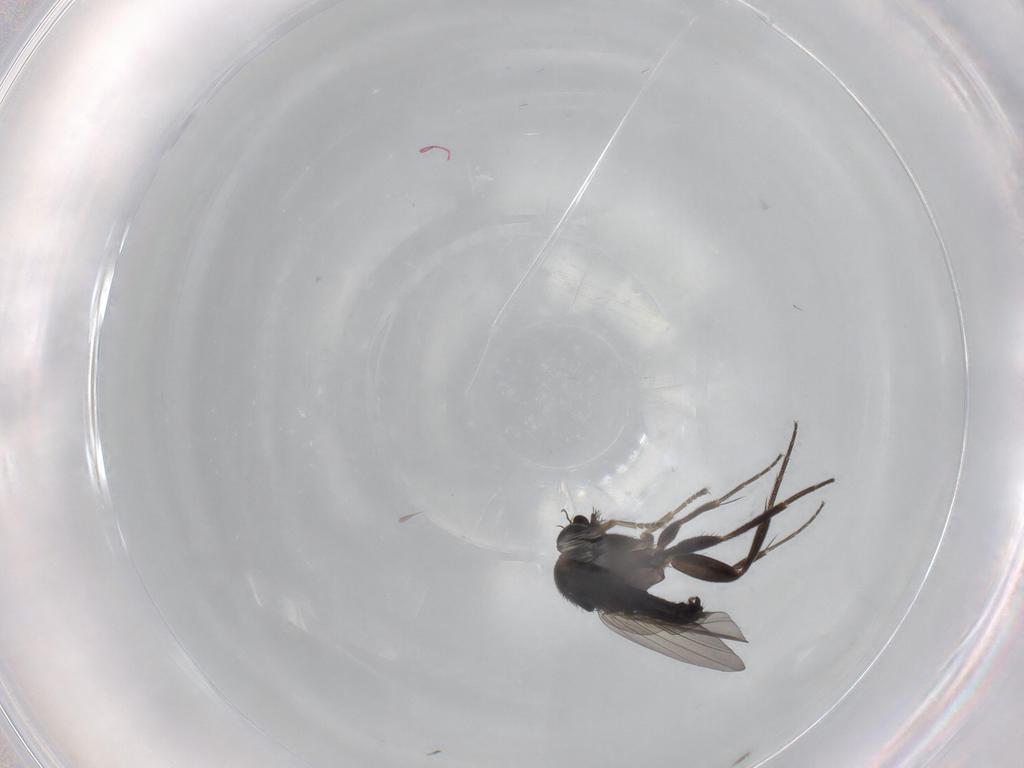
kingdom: Animalia
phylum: Arthropoda
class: Insecta
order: Diptera
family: Phoridae
